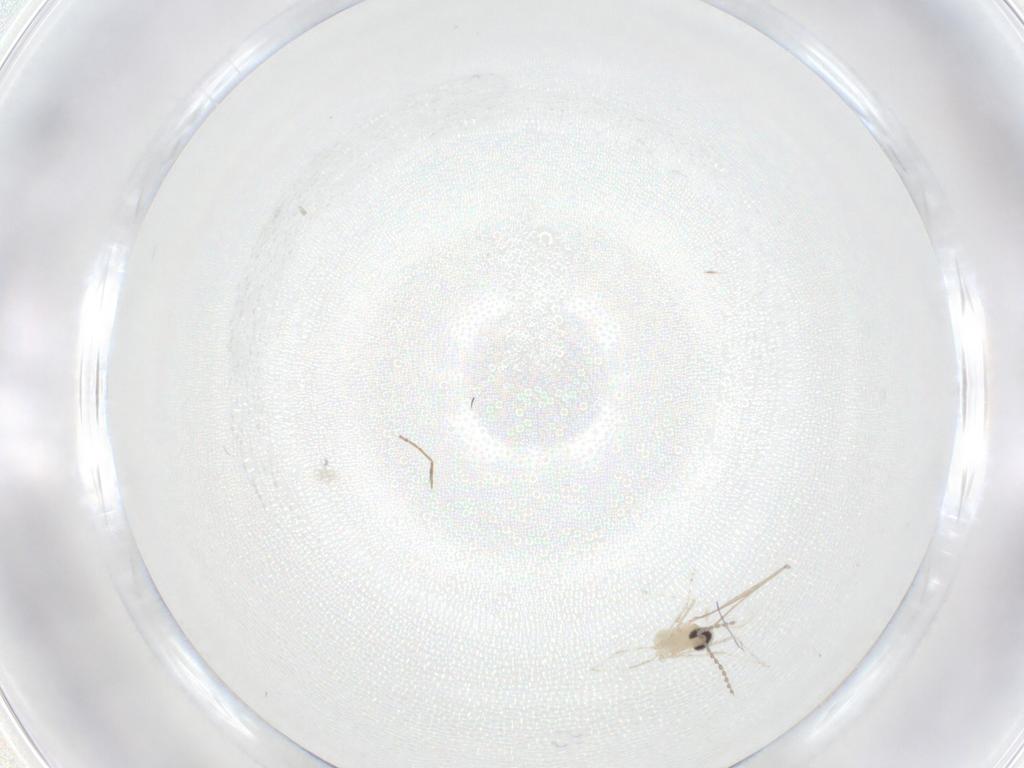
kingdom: Animalia
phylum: Arthropoda
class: Insecta
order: Diptera
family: Cecidomyiidae
